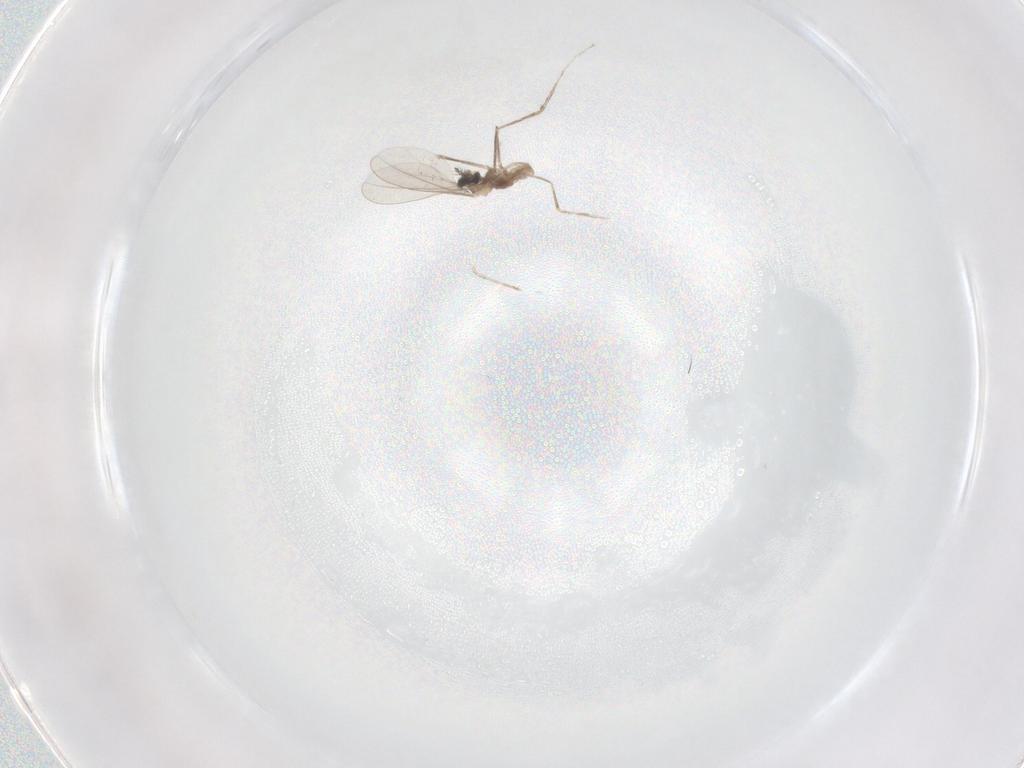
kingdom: Animalia
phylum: Arthropoda
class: Insecta
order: Diptera
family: Cecidomyiidae
